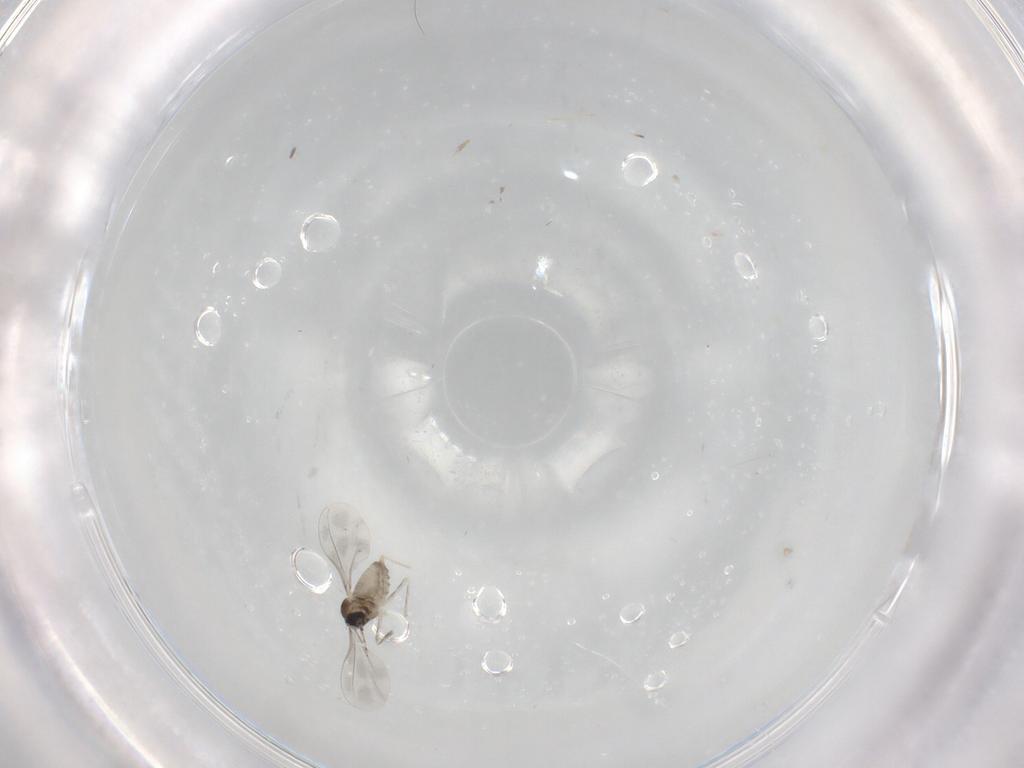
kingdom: Animalia
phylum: Arthropoda
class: Insecta
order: Diptera
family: Cecidomyiidae
